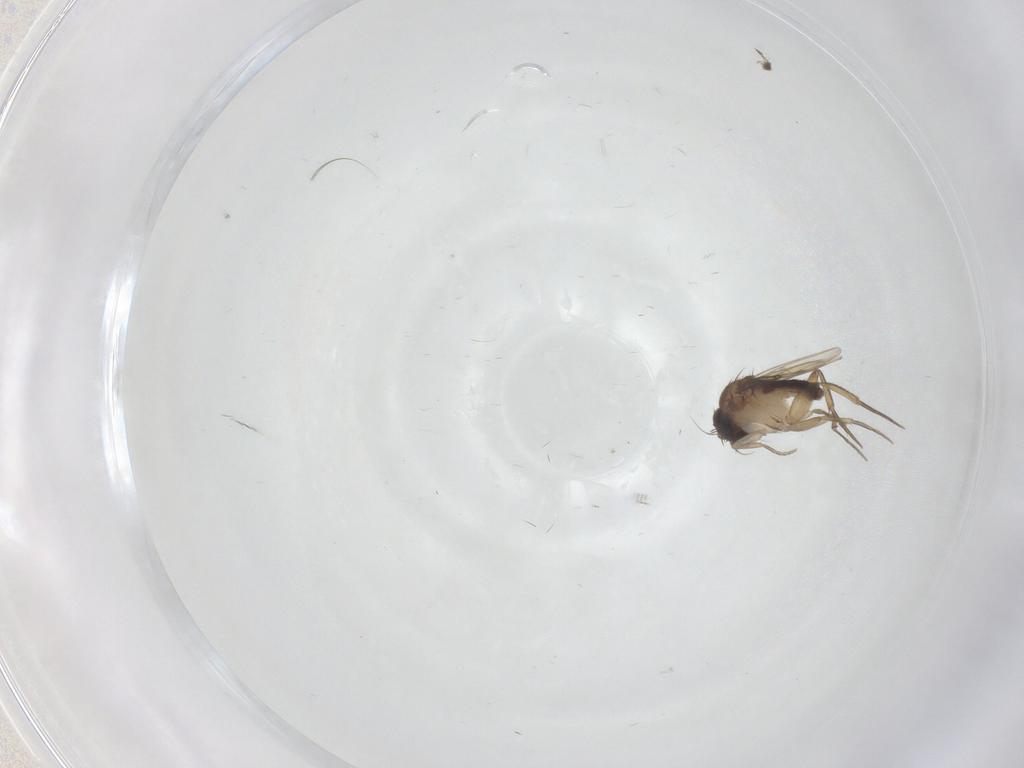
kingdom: Animalia
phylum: Arthropoda
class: Insecta
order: Diptera
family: Phoridae
